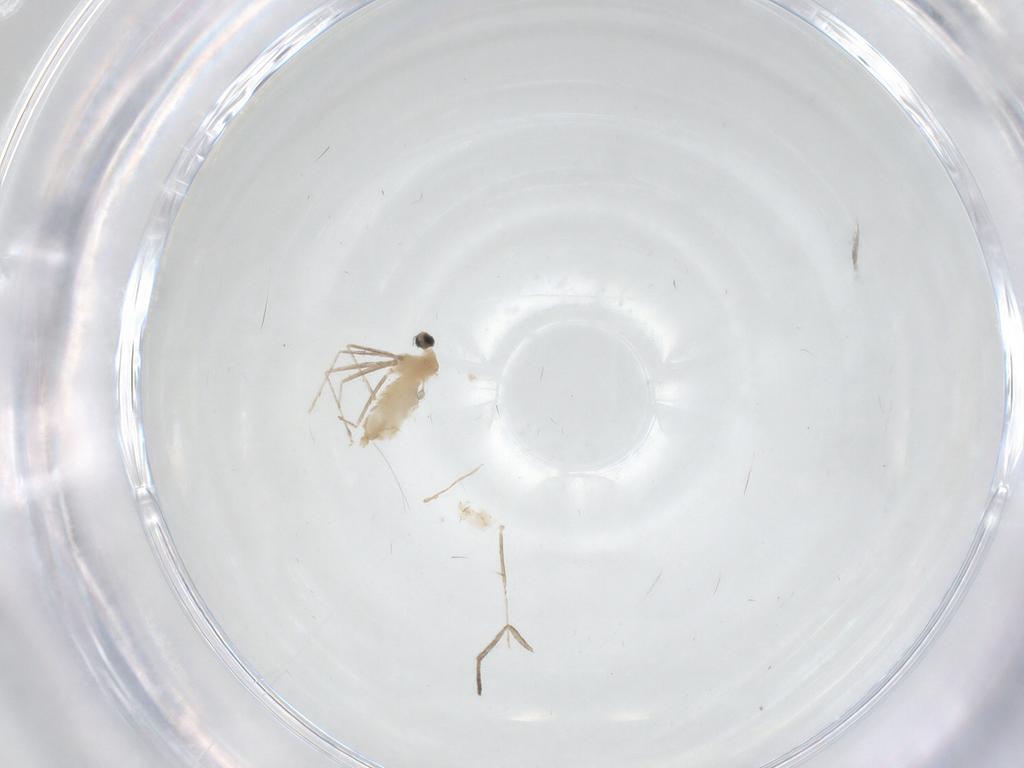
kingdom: Animalia
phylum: Arthropoda
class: Insecta
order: Diptera
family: Cecidomyiidae
